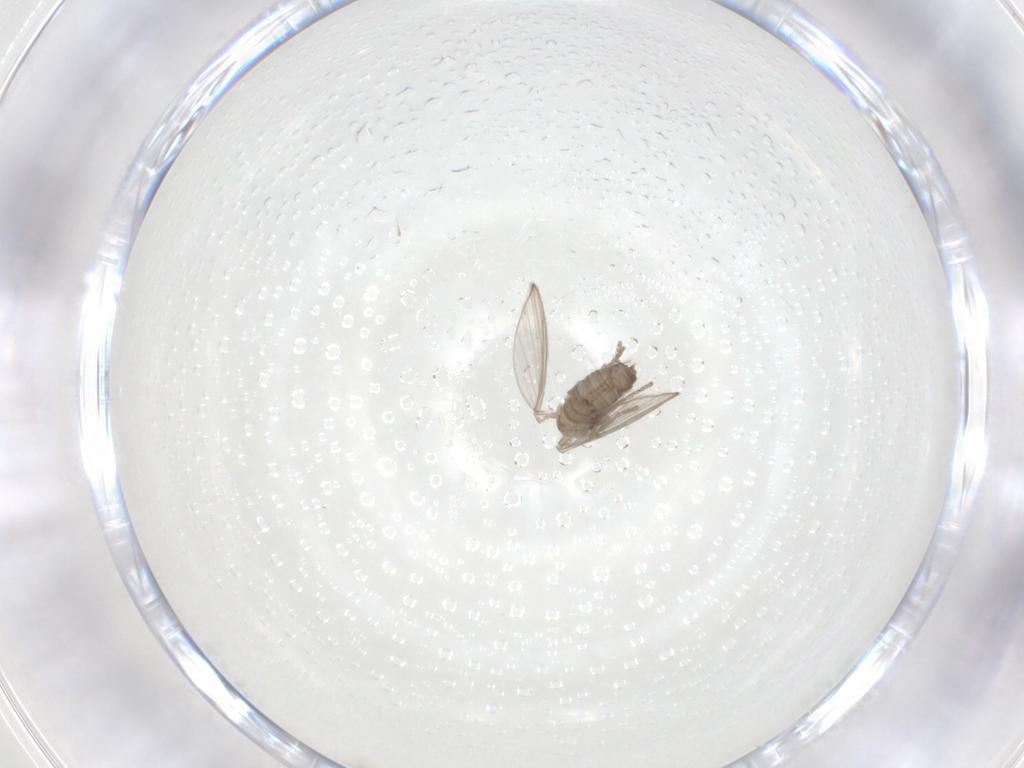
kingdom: Animalia
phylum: Arthropoda
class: Insecta
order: Diptera
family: Psychodidae
